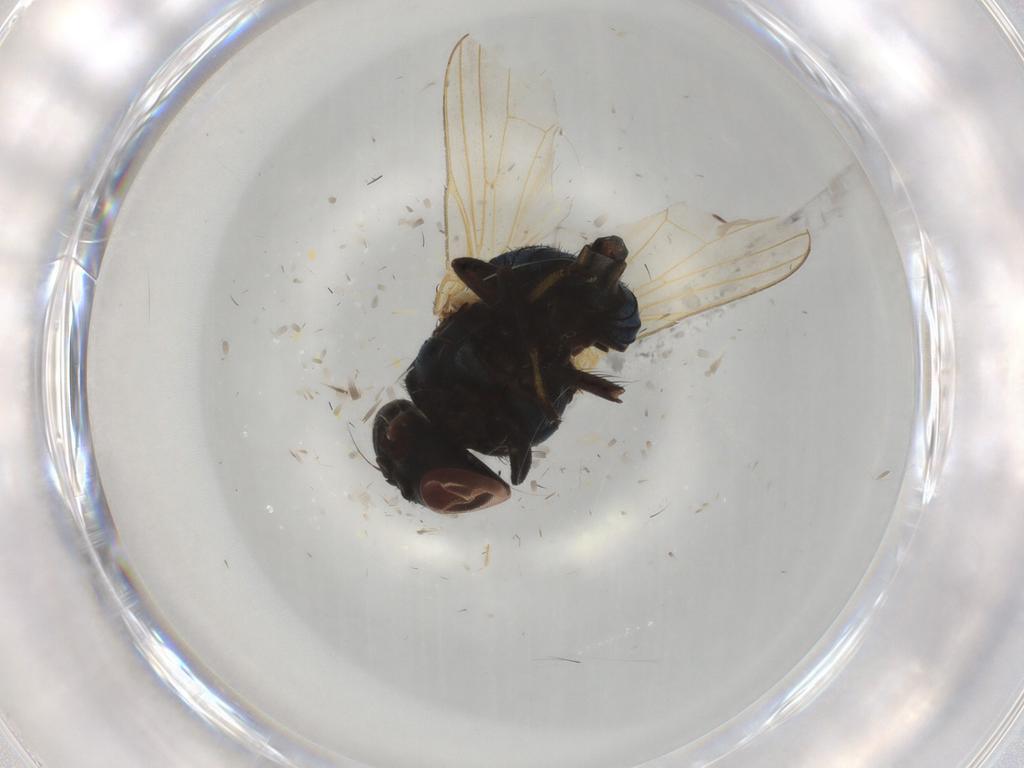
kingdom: Animalia
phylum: Arthropoda
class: Insecta
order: Diptera
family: Lonchaeidae
